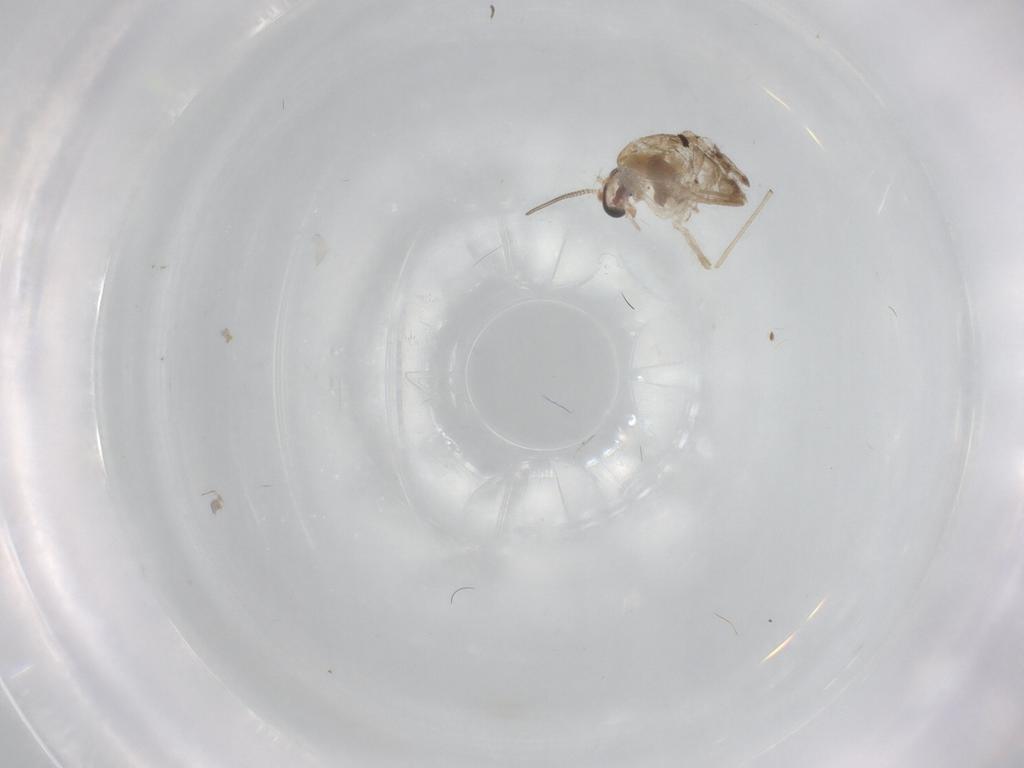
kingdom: Animalia
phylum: Arthropoda
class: Insecta
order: Diptera
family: Chironomidae
